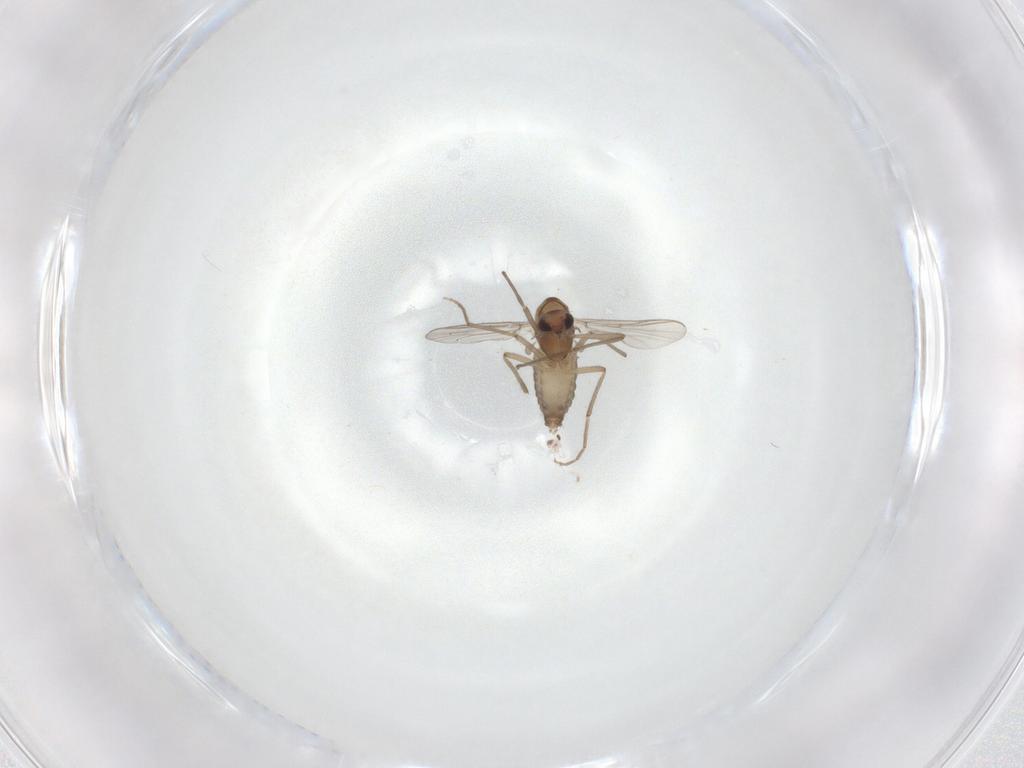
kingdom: Animalia
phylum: Arthropoda
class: Insecta
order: Diptera
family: Chironomidae
